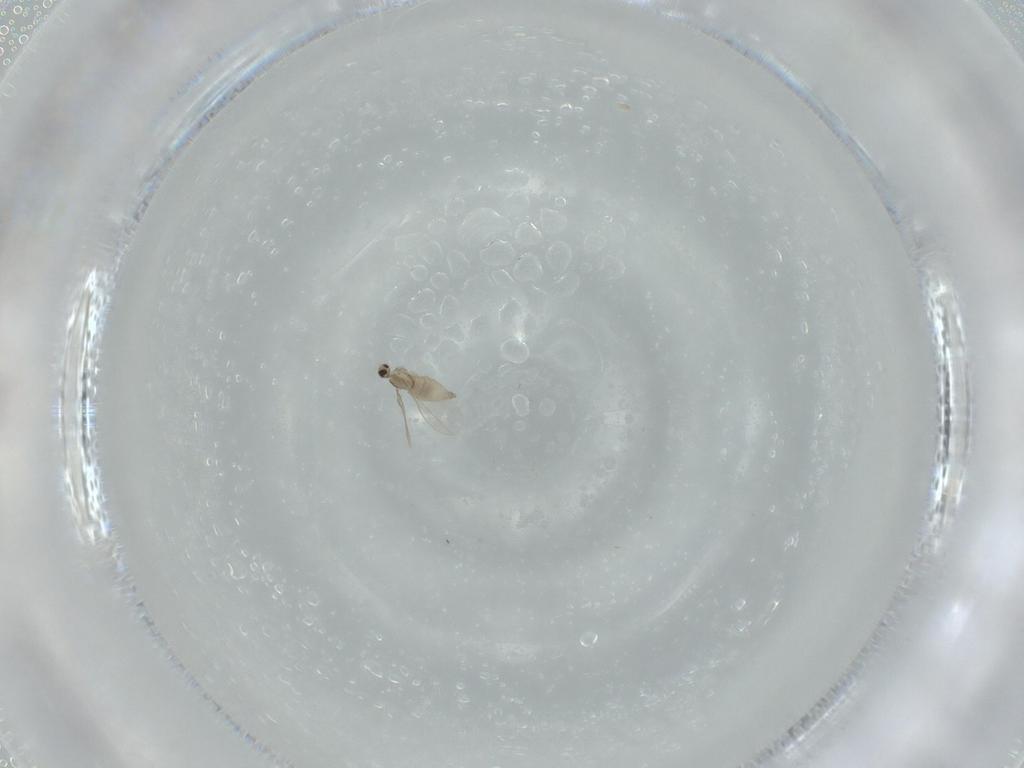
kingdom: Animalia
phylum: Arthropoda
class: Insecta
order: Diptera
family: Cecidomyiidae
